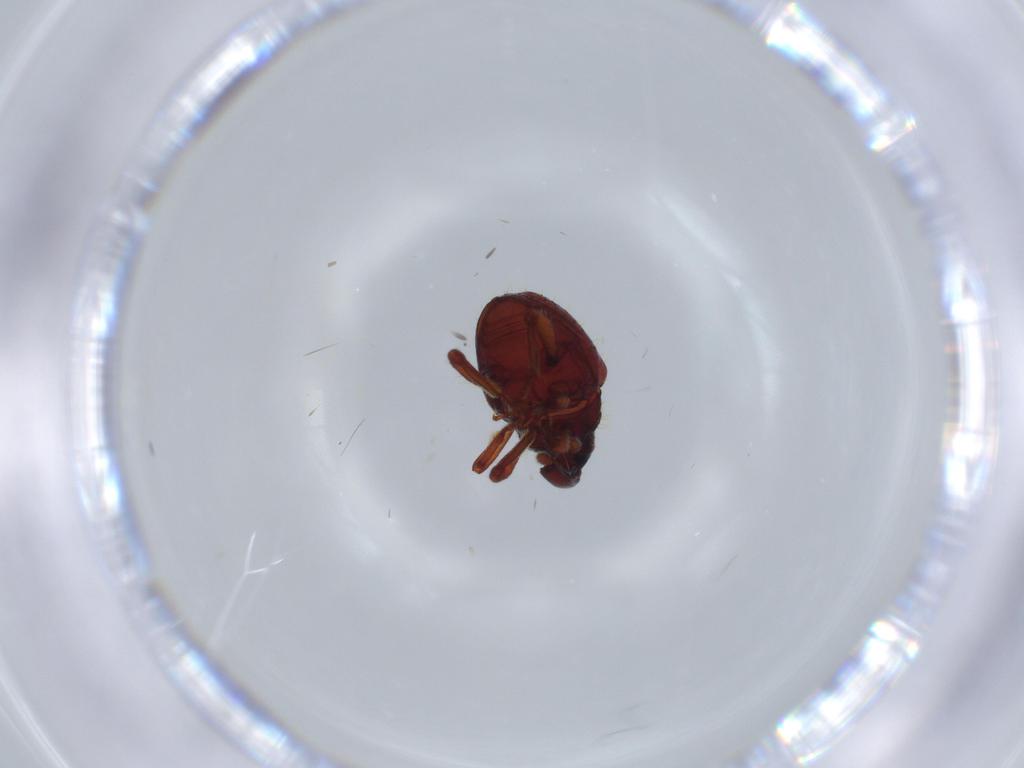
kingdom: Animalia
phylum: Arthropoda
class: Insecta
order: Coleoptera
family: Curculionidae
